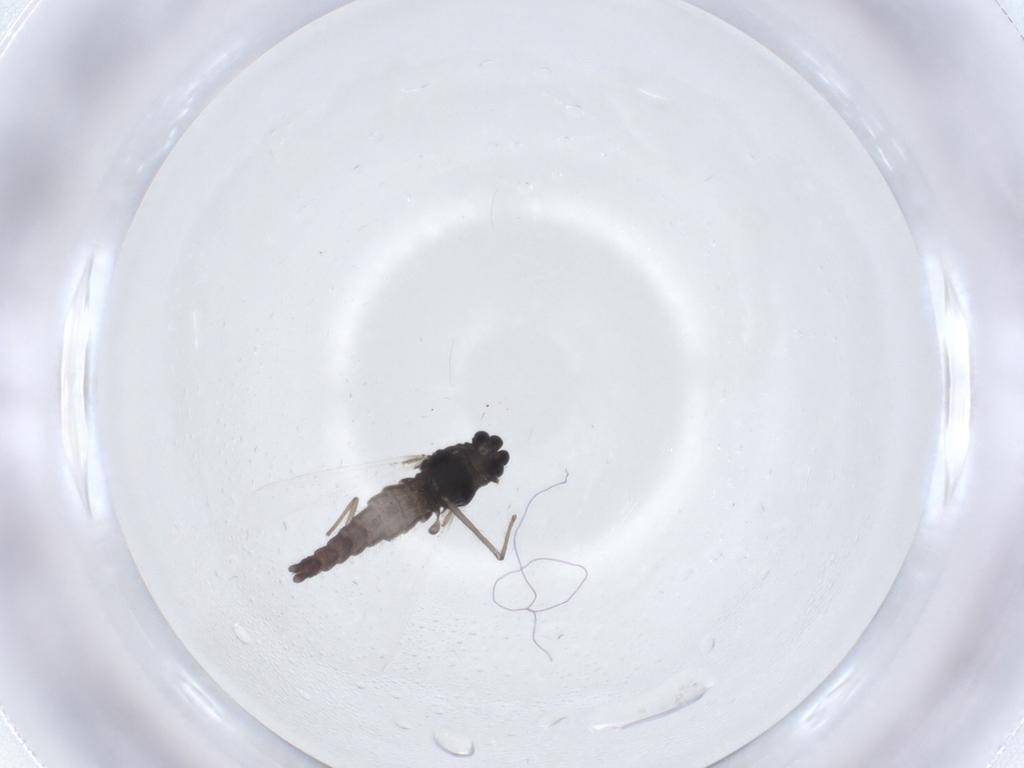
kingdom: Animalia
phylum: Arthropoda
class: Insecta
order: Diptera
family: Chironomidae
